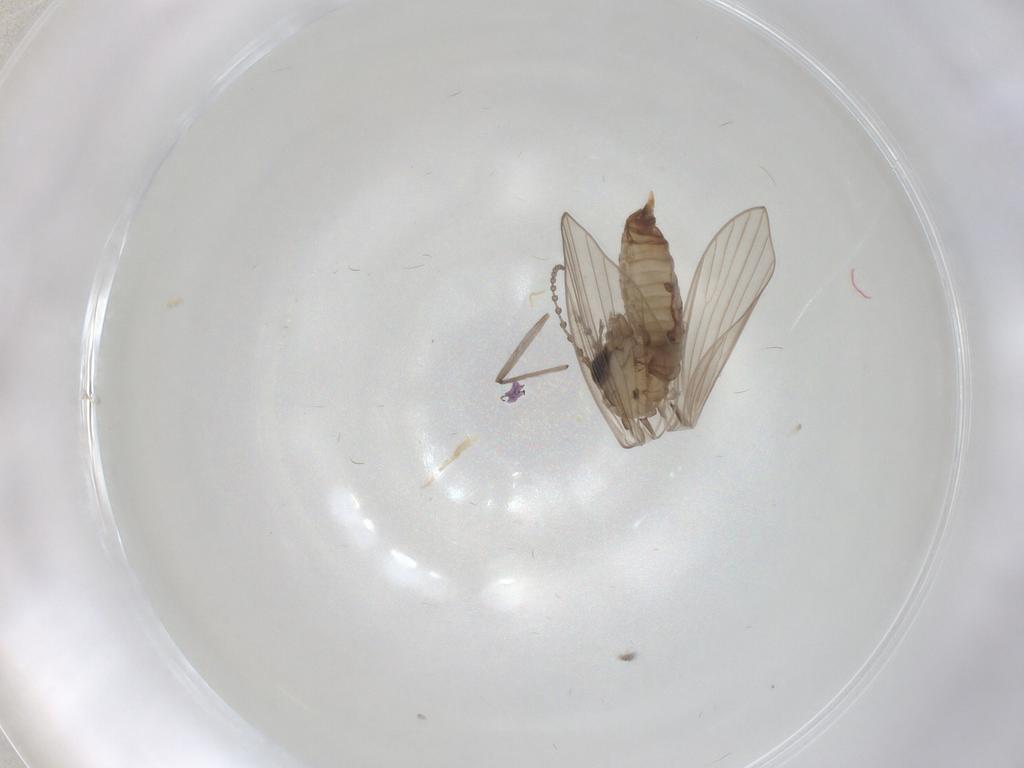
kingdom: Animalia
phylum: Arthropoda
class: Insecta
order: Diptera
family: Psychodidae
